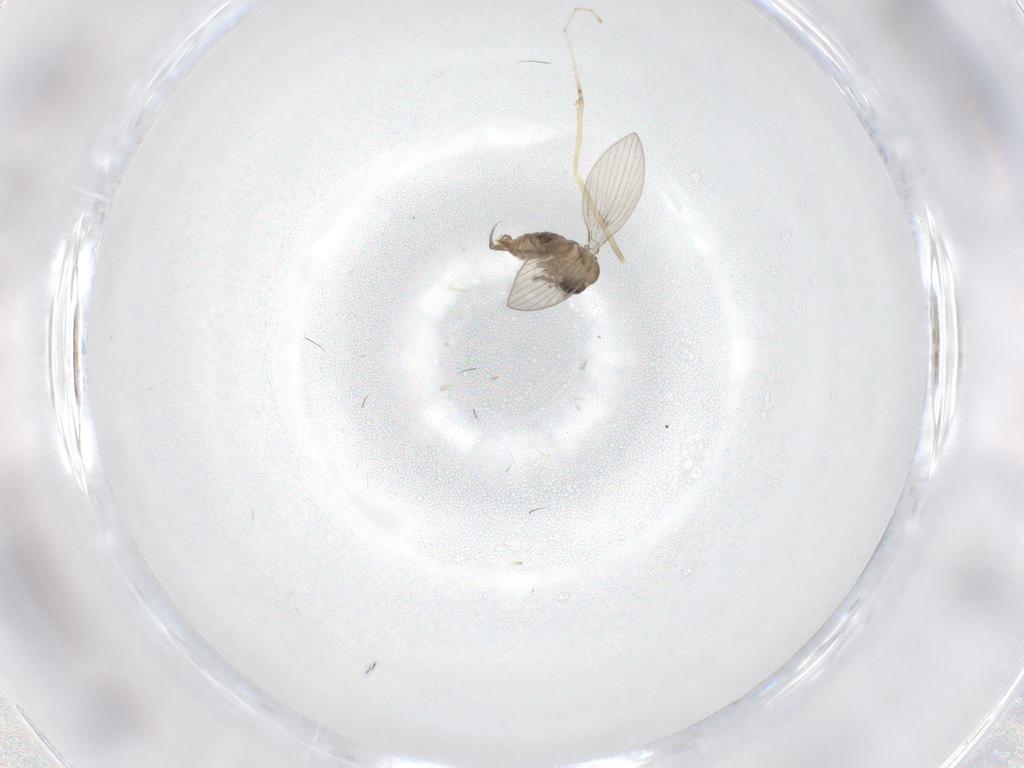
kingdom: Animalia
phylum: Arthropoda
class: Insecta
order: Diptera
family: Psychodidae
